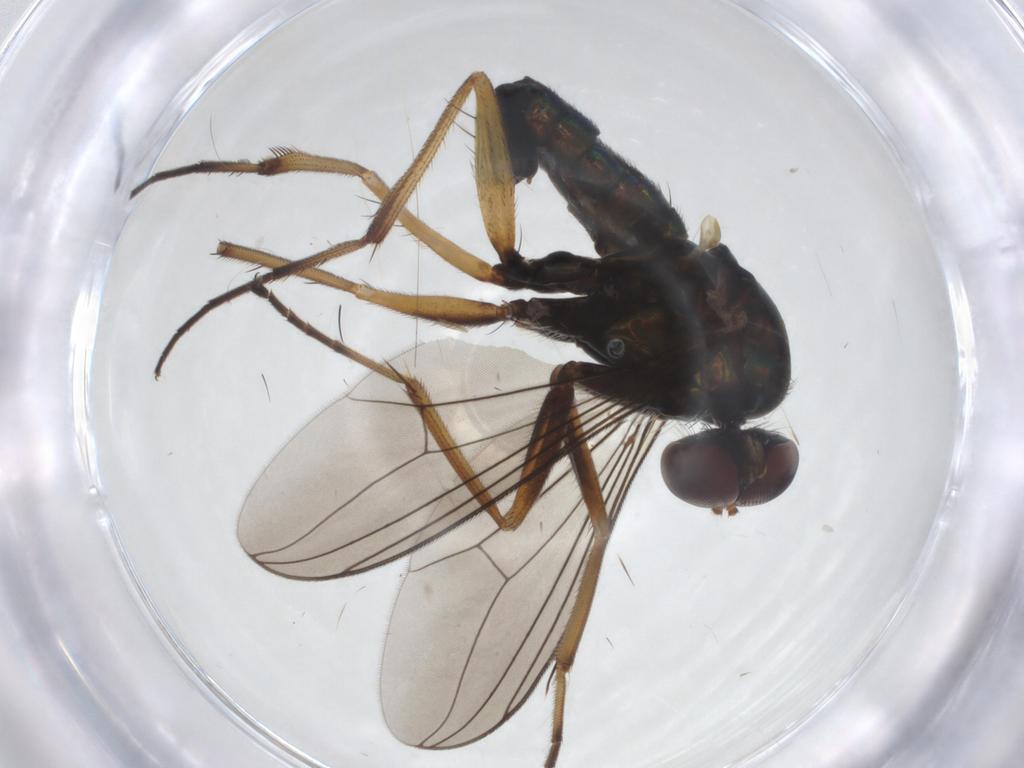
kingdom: Animalia
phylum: Arthropoda
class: Insecta
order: Diptera
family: Dolichopodidae
